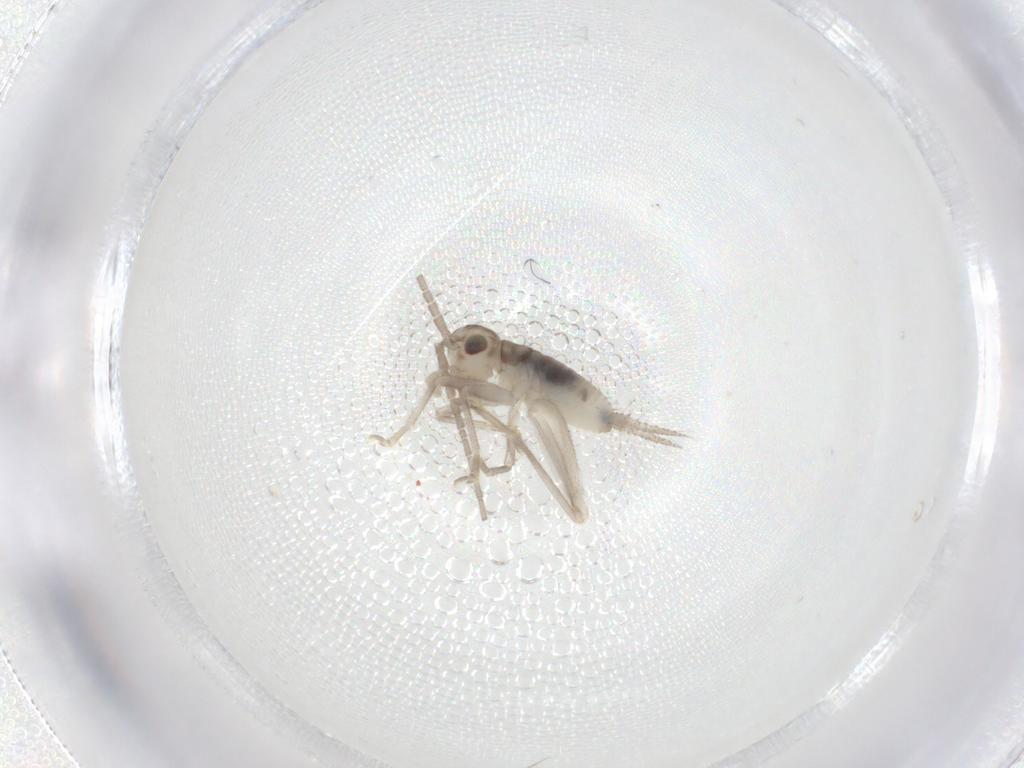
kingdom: Animalia
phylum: Arthropoda
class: Insecta
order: Orthoptera
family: Trigonidiidae
